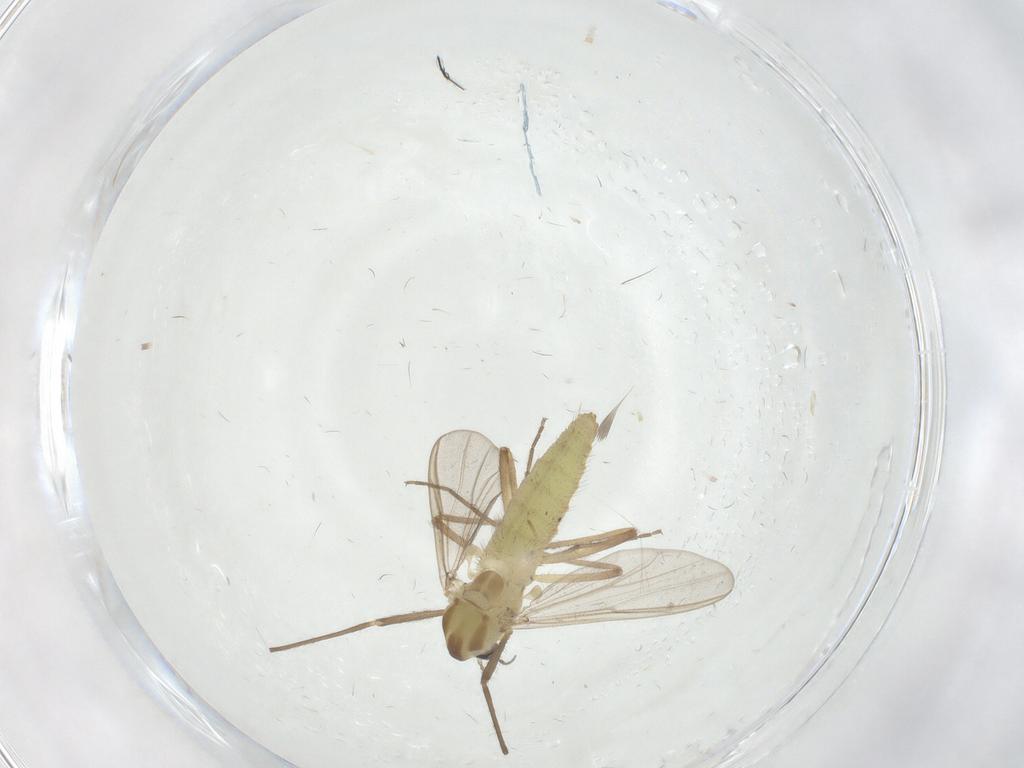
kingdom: Animalia
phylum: Arthropoda
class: Insecta
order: Diptera
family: Chironomidae
